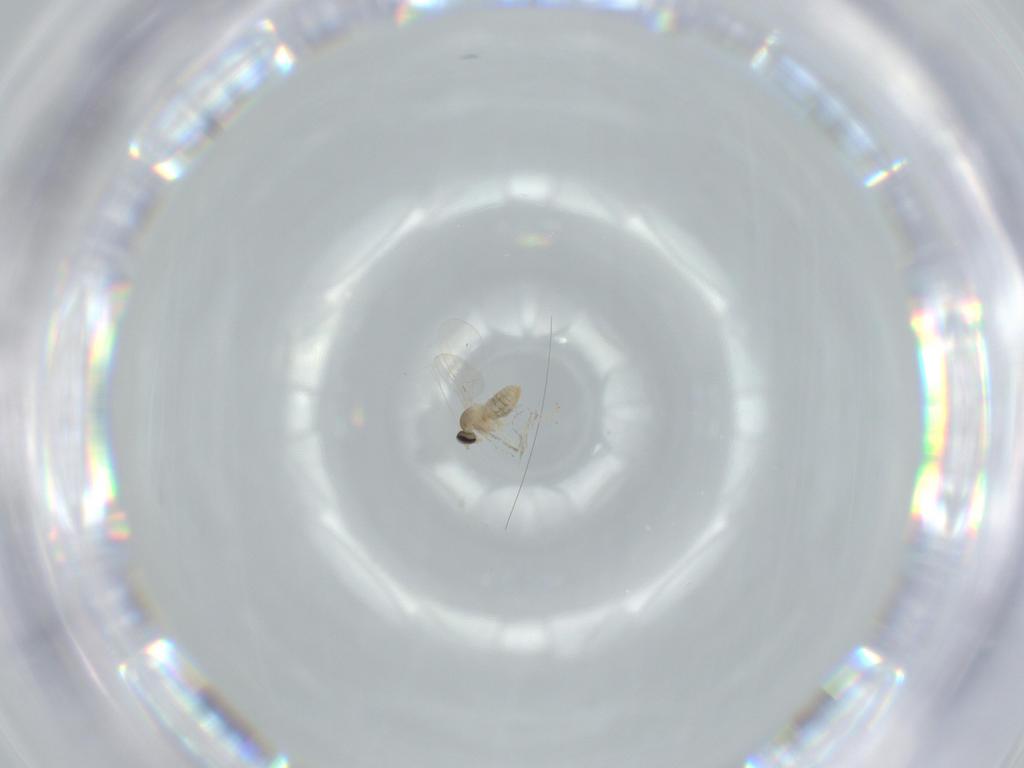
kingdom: Animalia
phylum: Arthropoda
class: Insecta
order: Diptera
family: Cecidomyiidae
